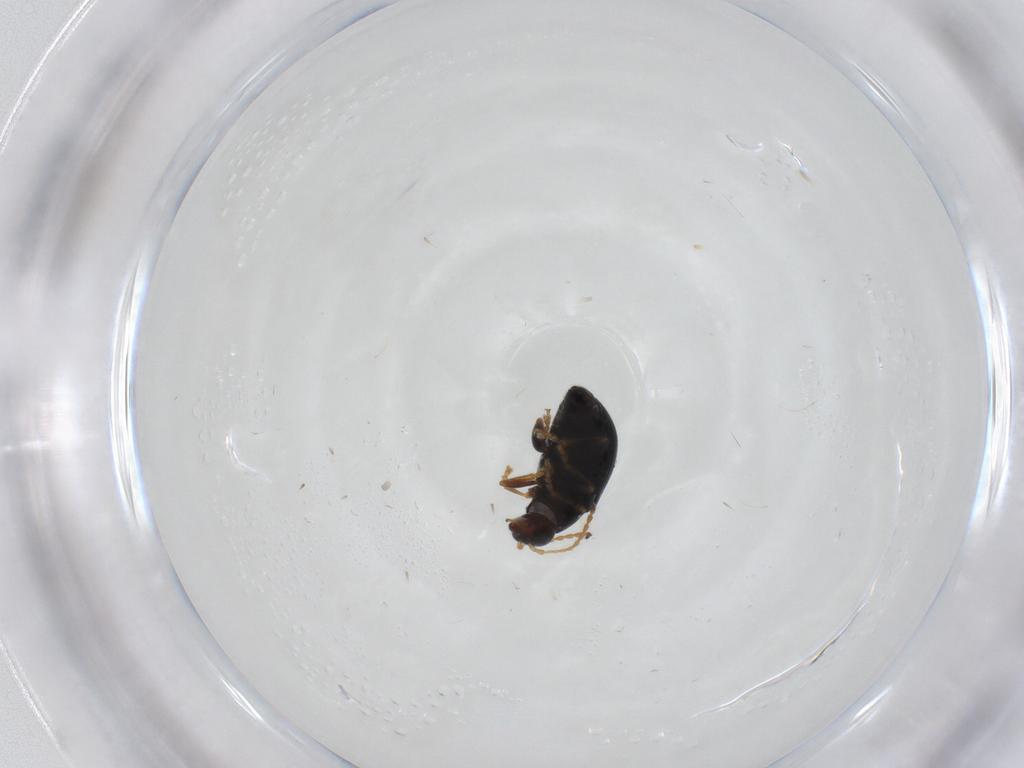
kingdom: Animalia
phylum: Arthropoda
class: Insecta
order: Coleoptera
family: Chrysomelidae
